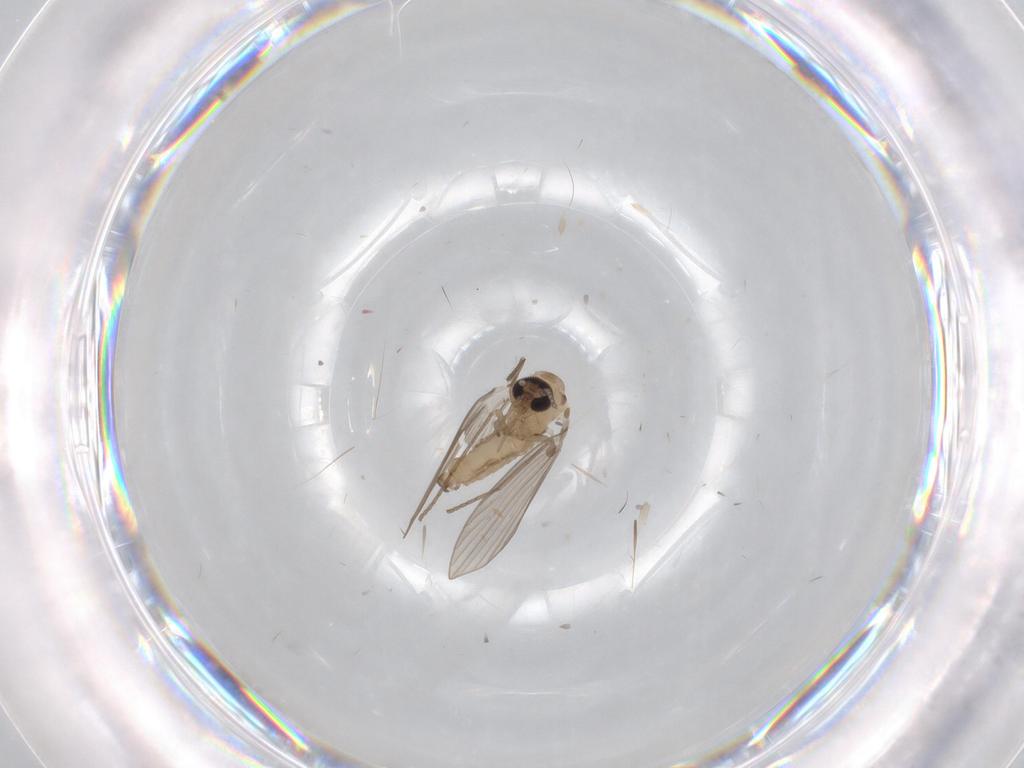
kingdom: Animalia
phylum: Arthropoda
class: Insecta
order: Diptera
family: Psychodidae
